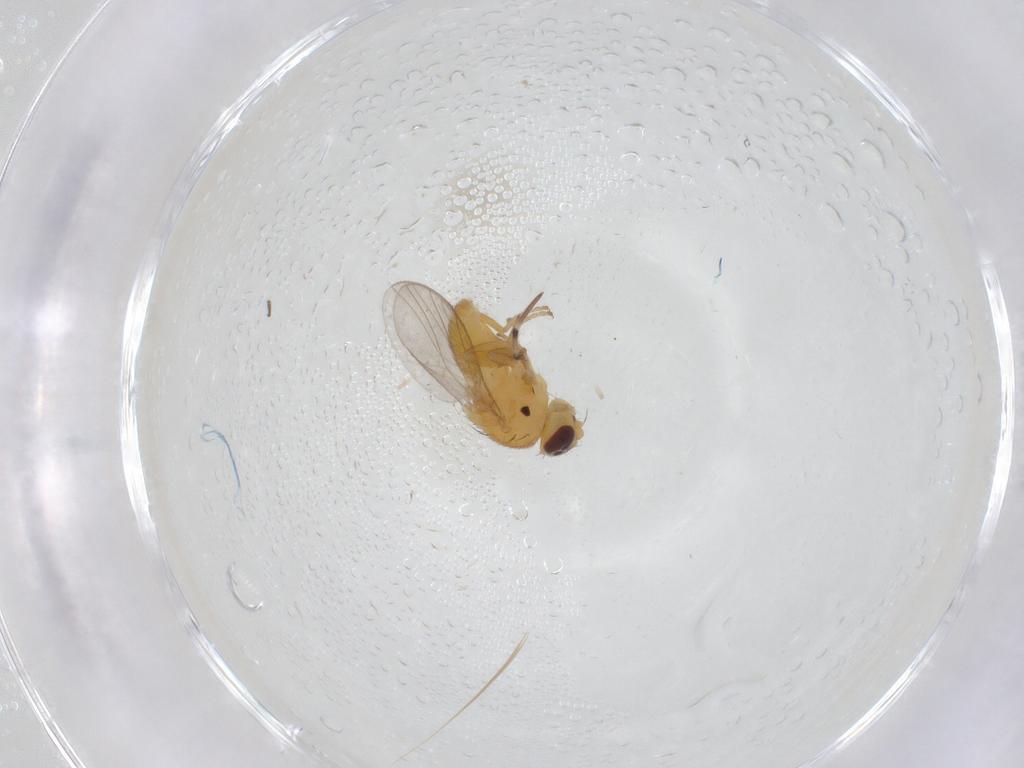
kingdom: Animalia
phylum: Arthropoda
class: Insecta
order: Diptera
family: Chloropidae
